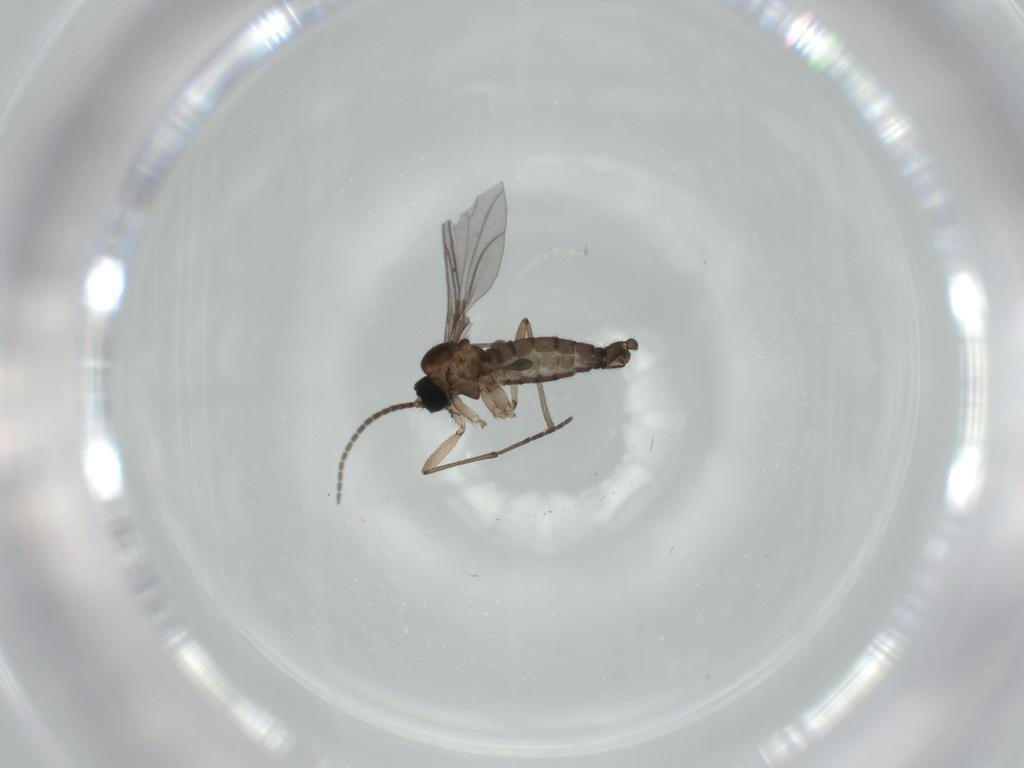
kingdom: Animalia
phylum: Arthropoda
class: Insecta
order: Diptera
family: Sciaridae
